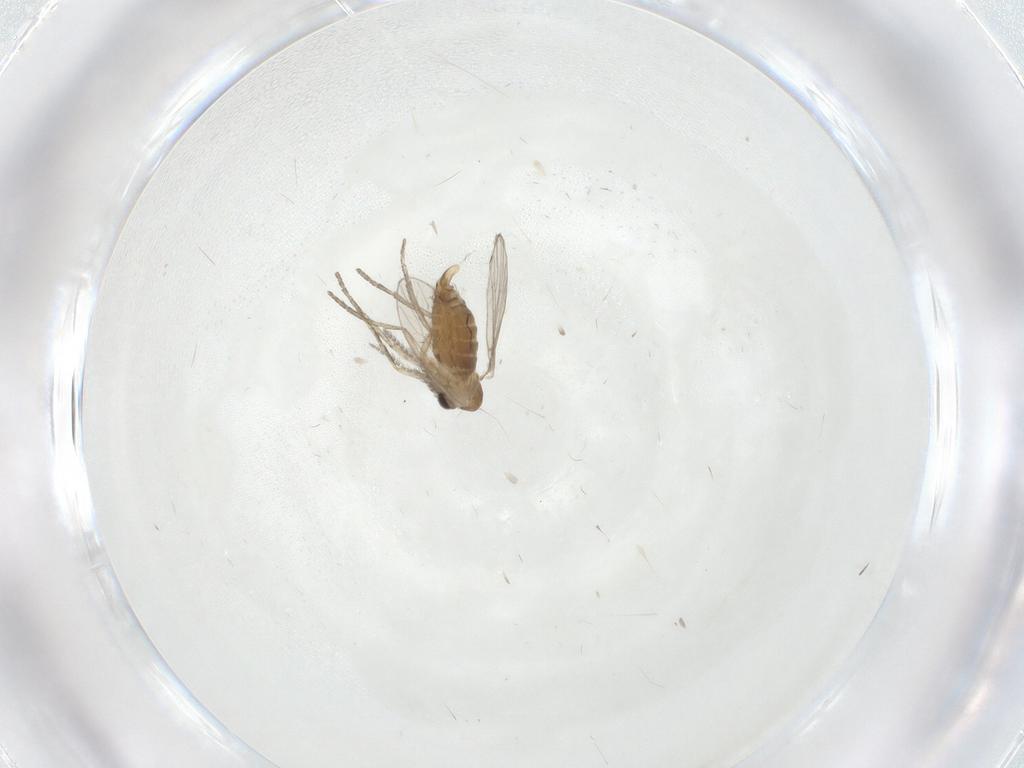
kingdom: Animalia
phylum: Arthropoda
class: Insecta
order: Diptera
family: Psychodidae
